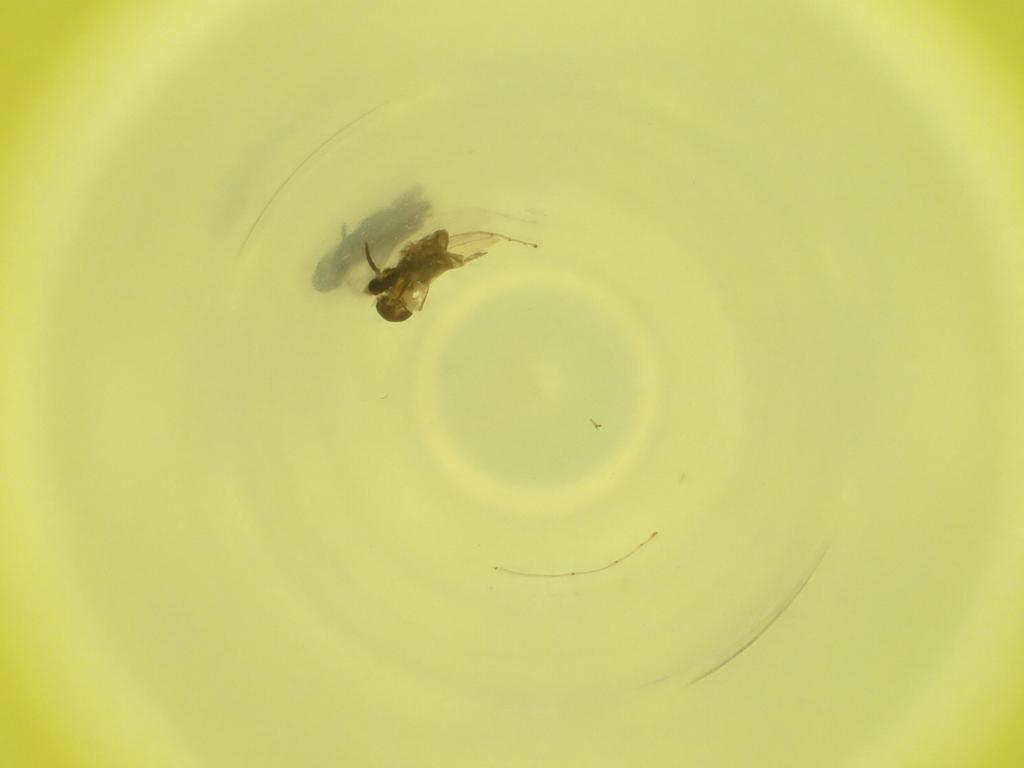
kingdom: Animalia
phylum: Arthropoda
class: Insecta
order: Diptera
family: Cecidomyiidae
